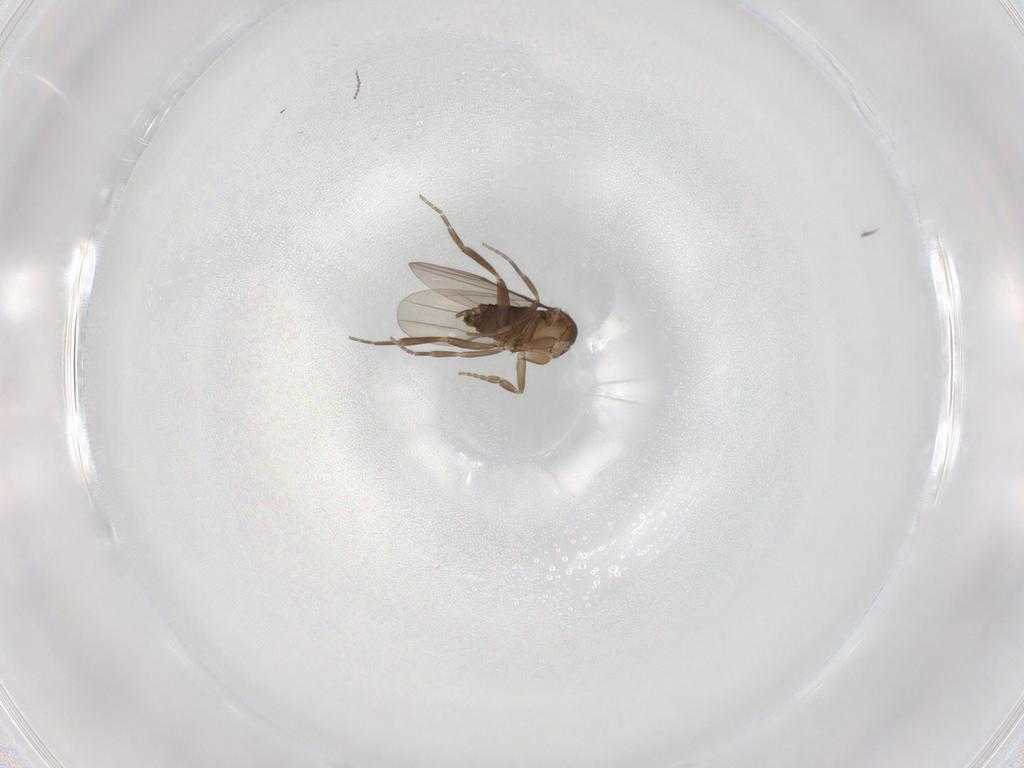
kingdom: Animalia
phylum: Arthropoda
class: Insecta
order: Diptera
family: Cecidomyiidae
